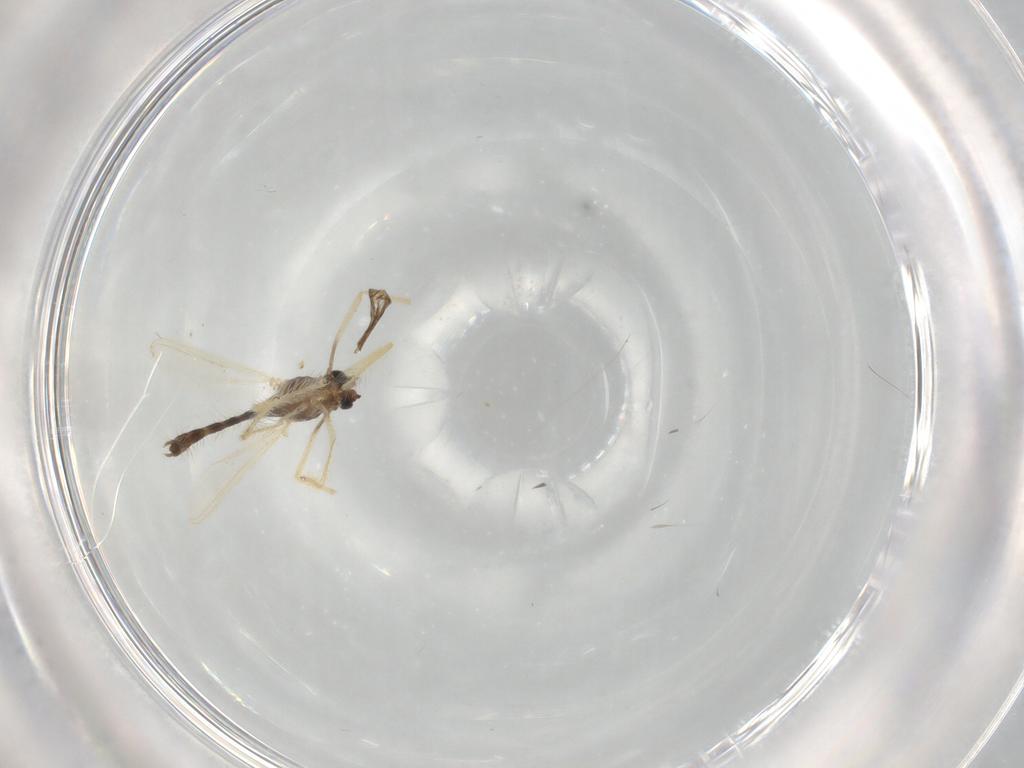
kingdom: Animalia
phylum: Arthropoda
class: Insecta
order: Diptera
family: Chironomidae
